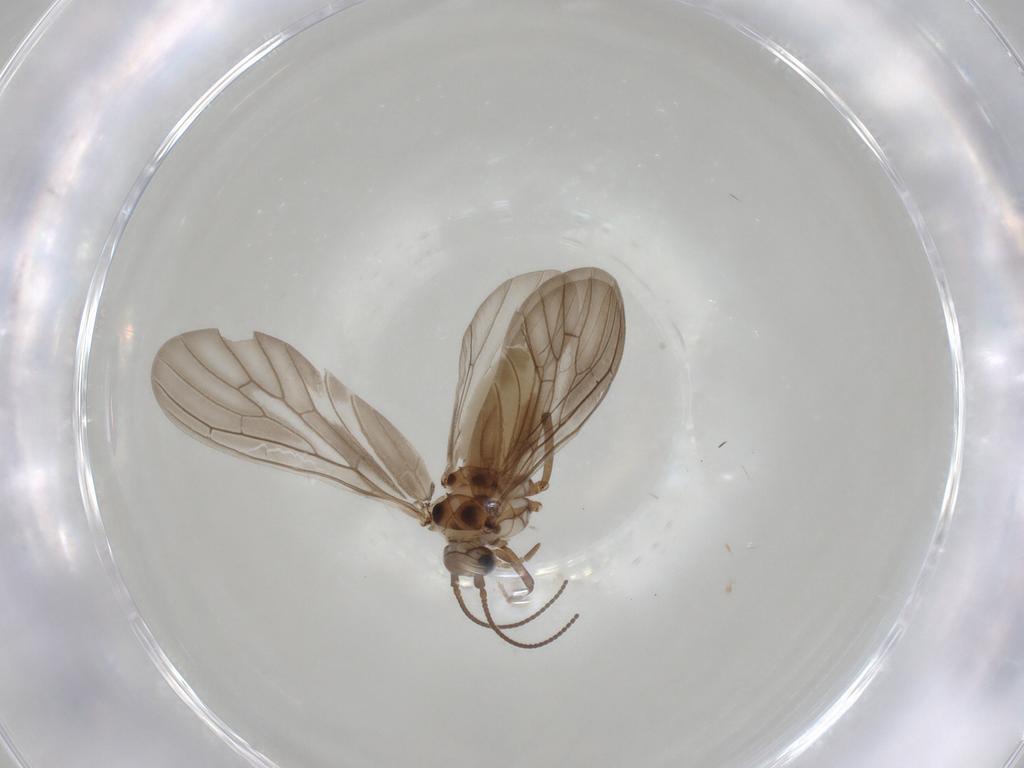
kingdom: Animalia
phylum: Arthropoda
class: Insecta
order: Neuroptera
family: Coniopterygidae
